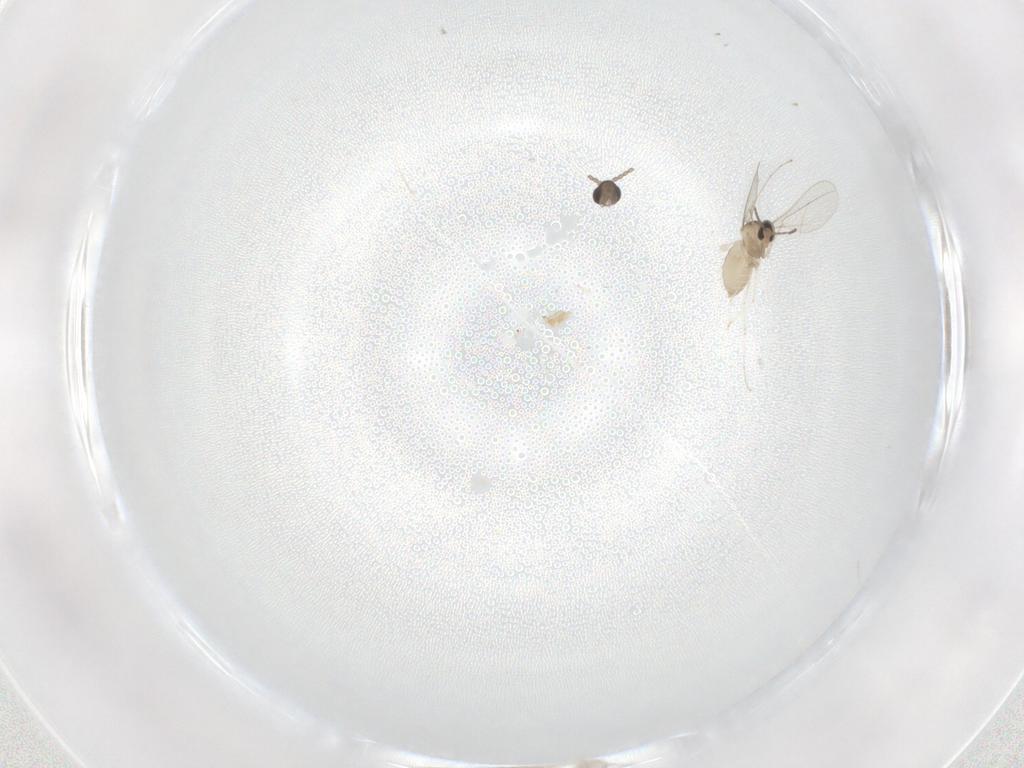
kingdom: Animalia
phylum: Arthropoda
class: Insecta
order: Diptera
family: Cecidomyiidae
